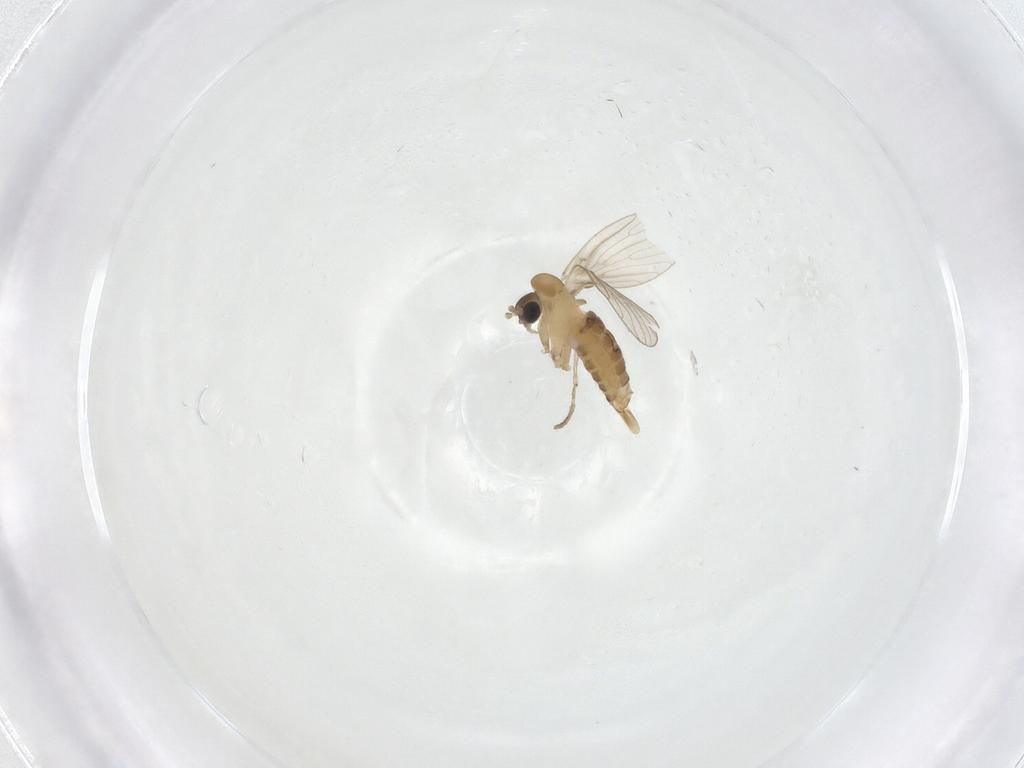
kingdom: Animalia
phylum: Arthropoda
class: Insecta
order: Diptera
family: Psychodidae
